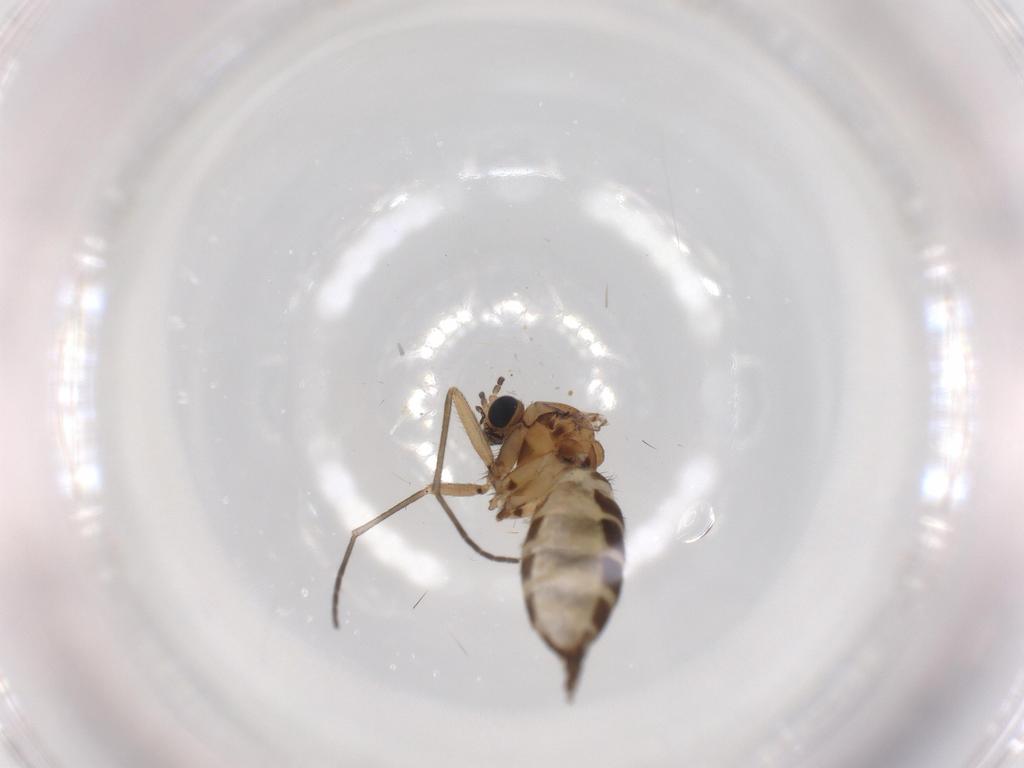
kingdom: Animalia
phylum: Arthropoda
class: Insecta
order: Diptera
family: Sciaridae
